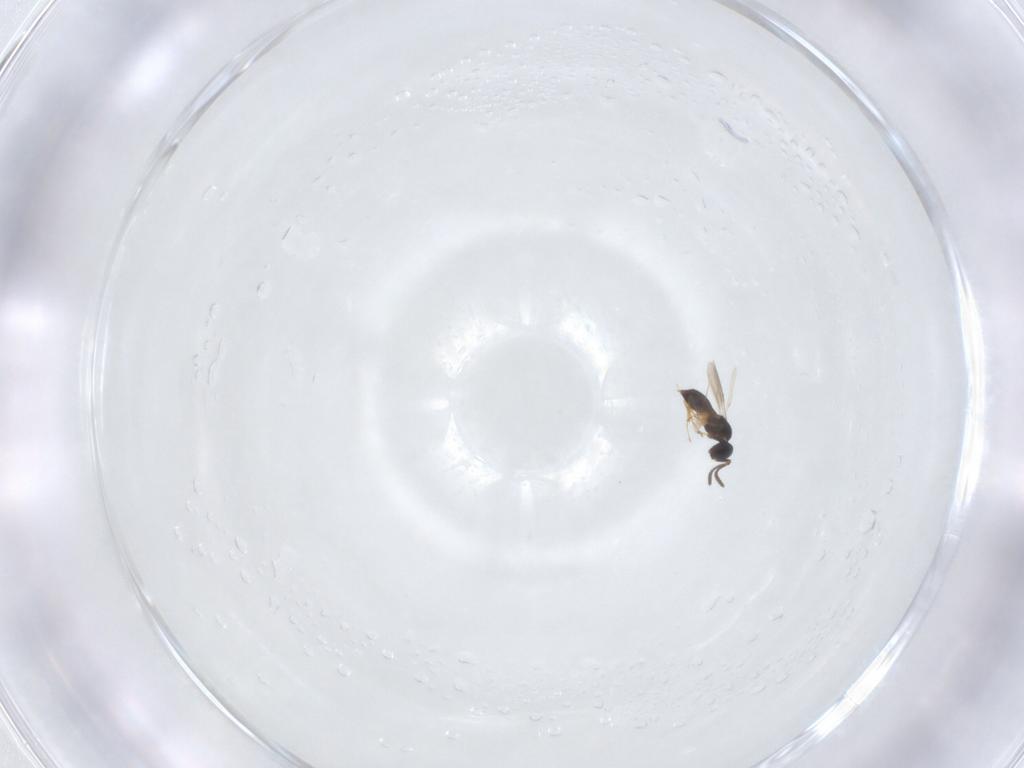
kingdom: Animalia
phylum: Arthropoda
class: Insecta
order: Hymenoptera
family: Scelionidae
